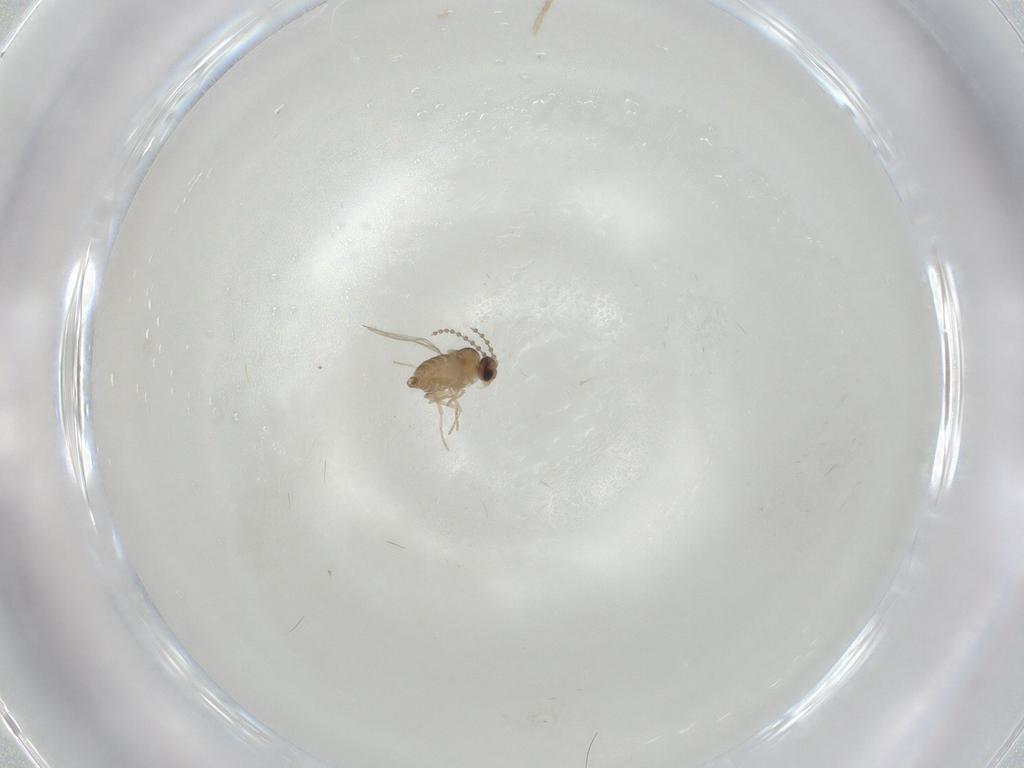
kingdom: Animalia
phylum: Arthropoda
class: Insecta
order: Diptera
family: Cecidomyiidae
